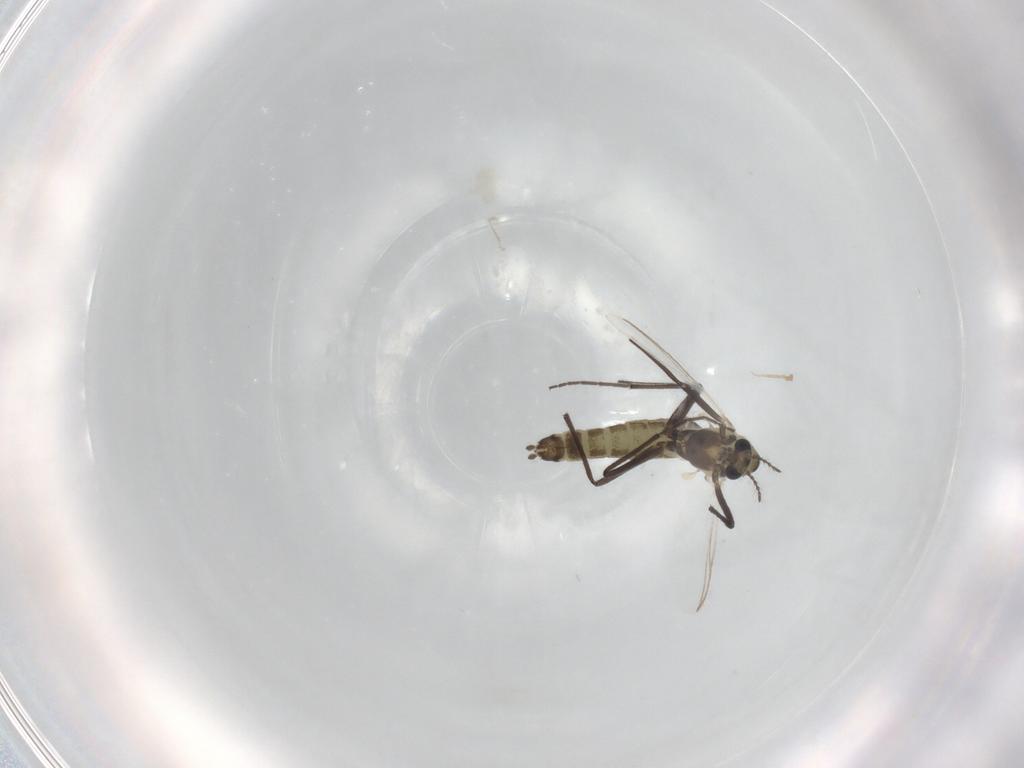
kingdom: Animalia
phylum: Arthropoda
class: Insecta
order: Diptera
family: Chironomidae
